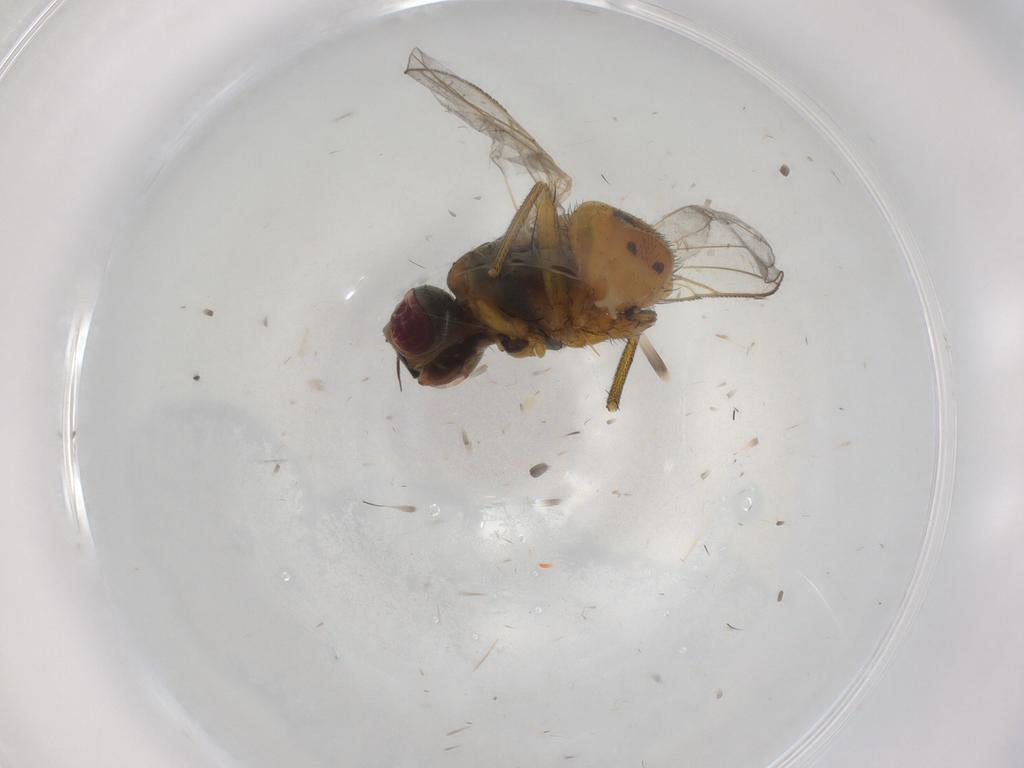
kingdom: Animalia
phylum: Arthropoda
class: Insecta
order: Diptera
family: Muscidae
